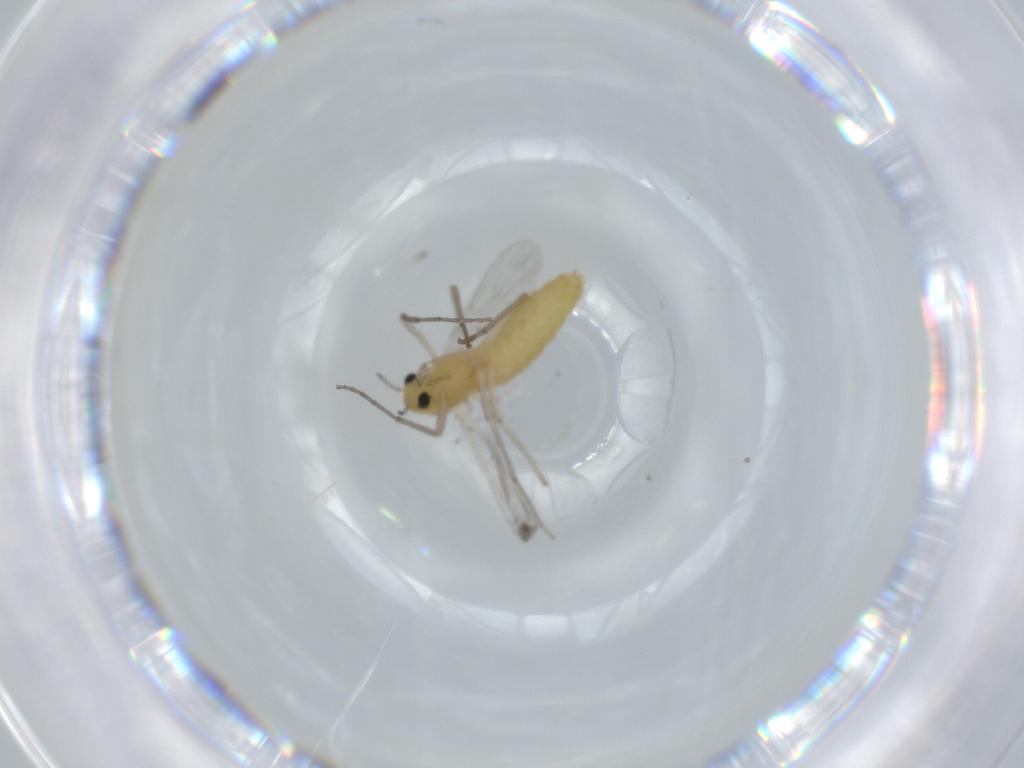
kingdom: Animalia
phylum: Arthropoda
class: Insecta
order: Diptera
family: Chironomidae
